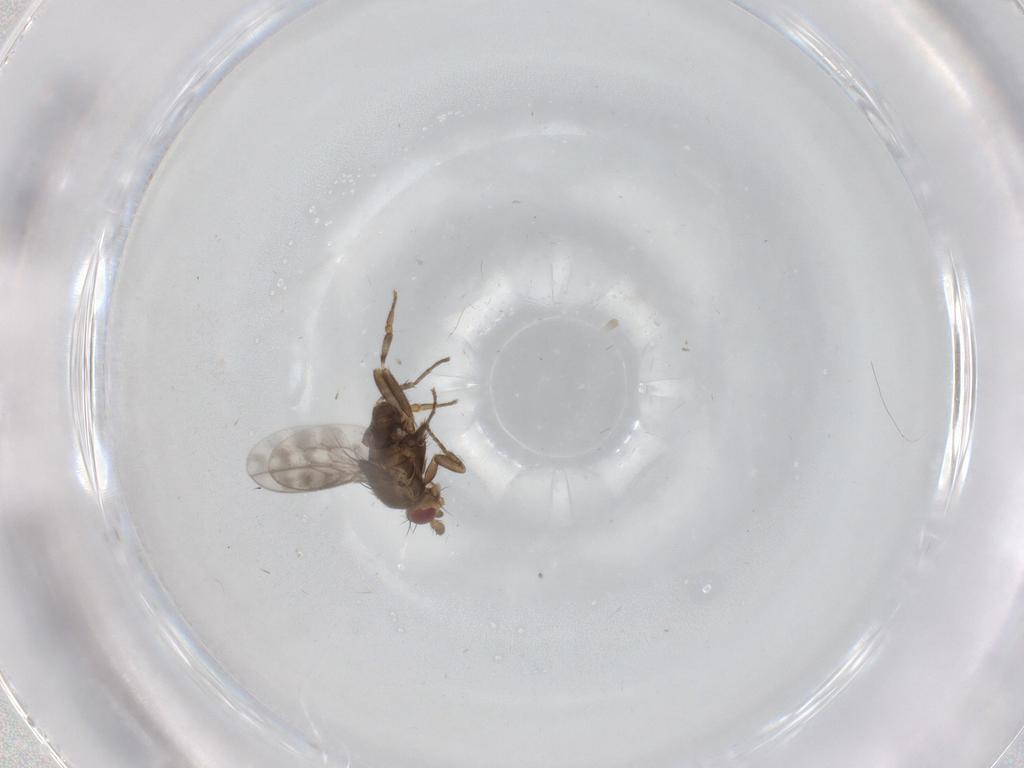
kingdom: Animalia
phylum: Arthropoda
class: Insecta
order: Diptera
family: Sphaeroceridae
